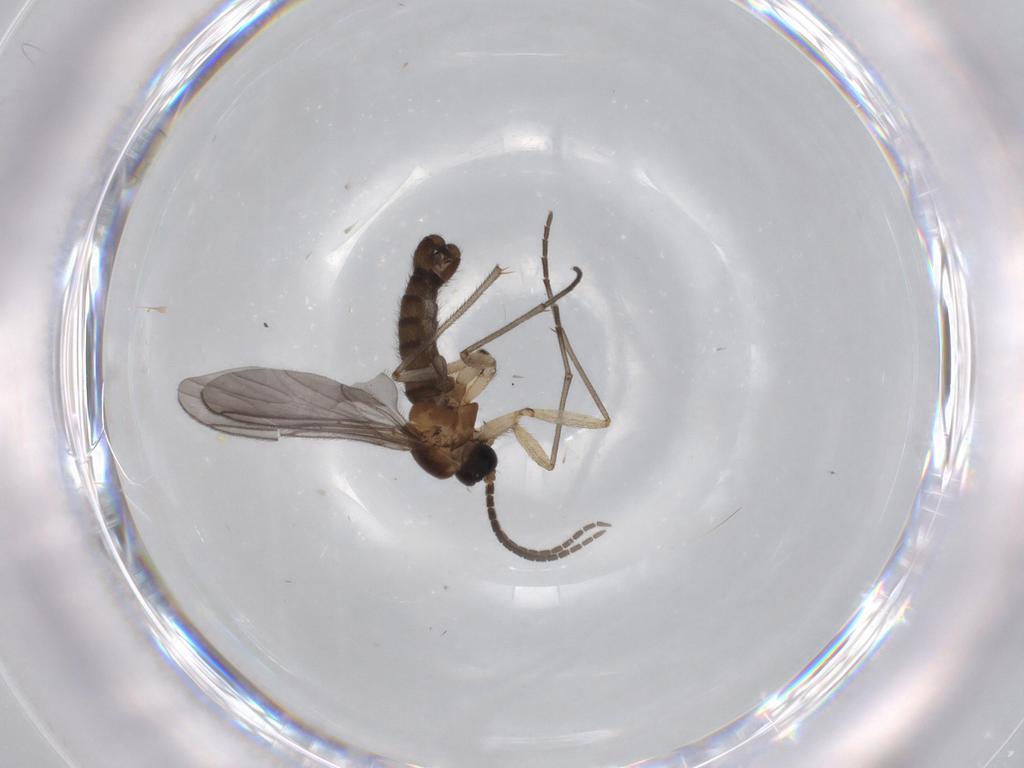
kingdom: Animalia
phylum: Arthropoda
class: Insecta
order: Diptera
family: Sciaridae
